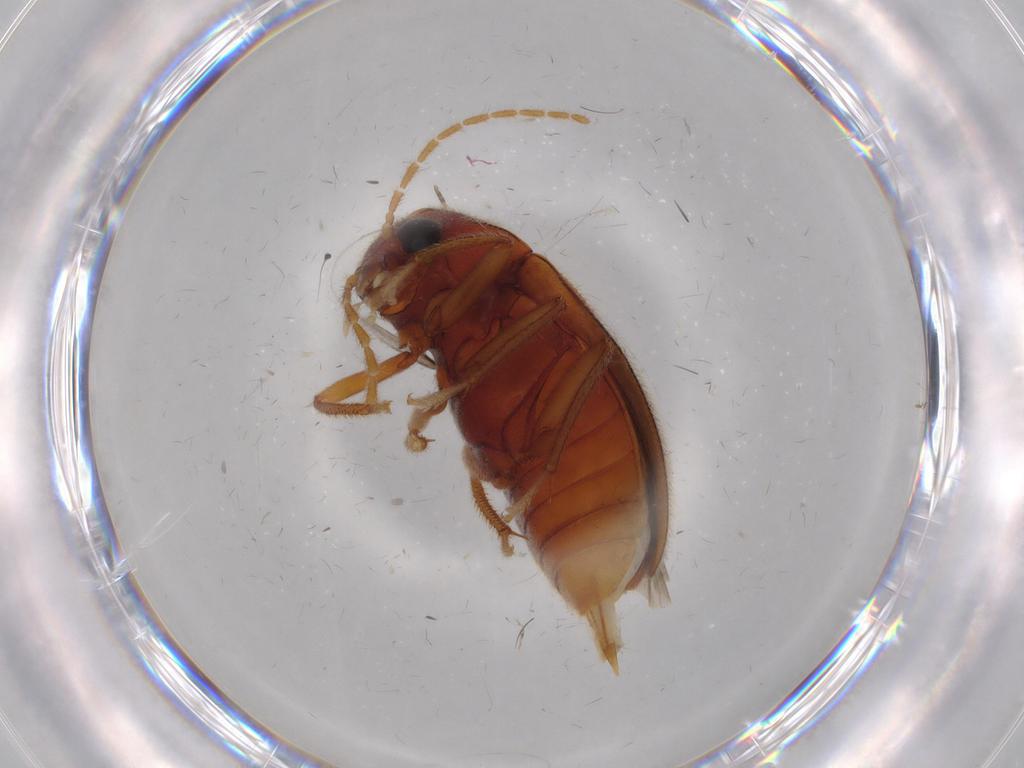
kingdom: Animalia
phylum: Arthropoda
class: Insecta
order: Coleoptera
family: Ptilodactylidae
